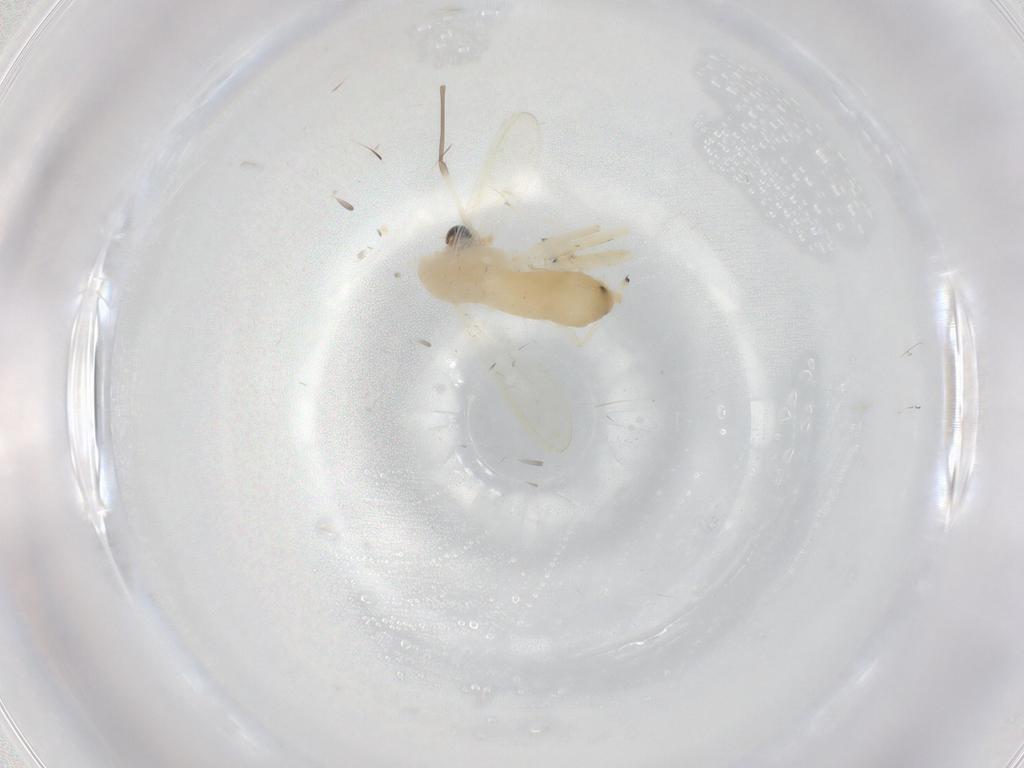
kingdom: Animalia
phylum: Arthropoda
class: Insecta
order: Diptera
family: Chironomidae
